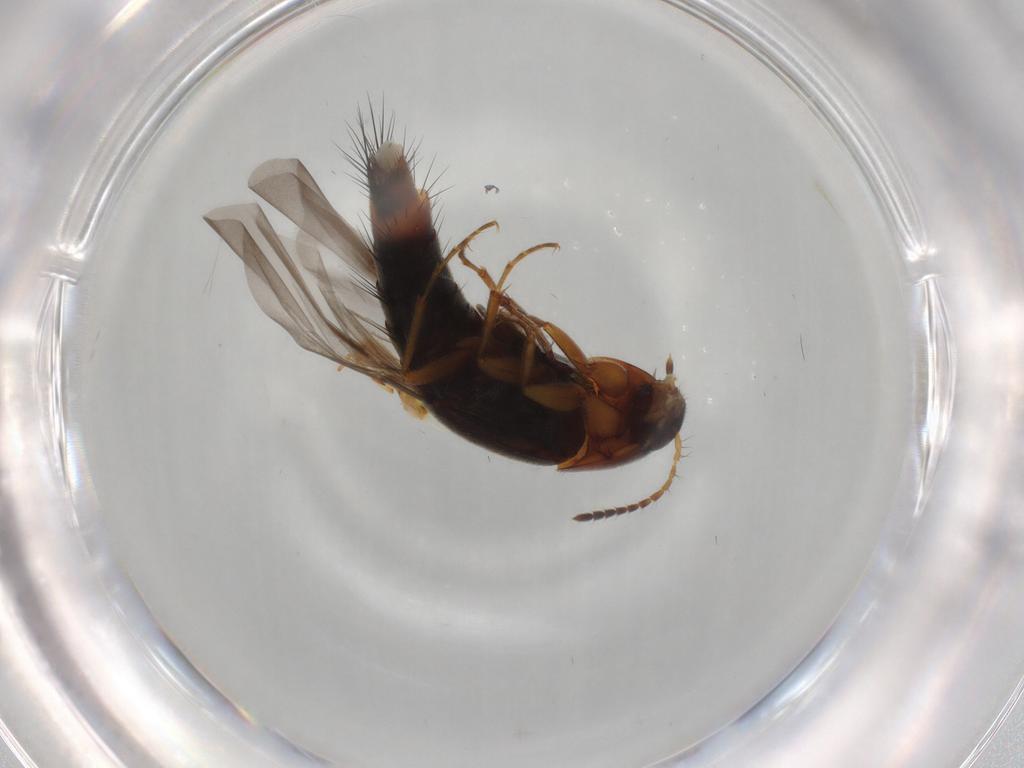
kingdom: Animalia
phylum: Arthropoda
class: Insecta
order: Coleoptera
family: Staphylinidae
